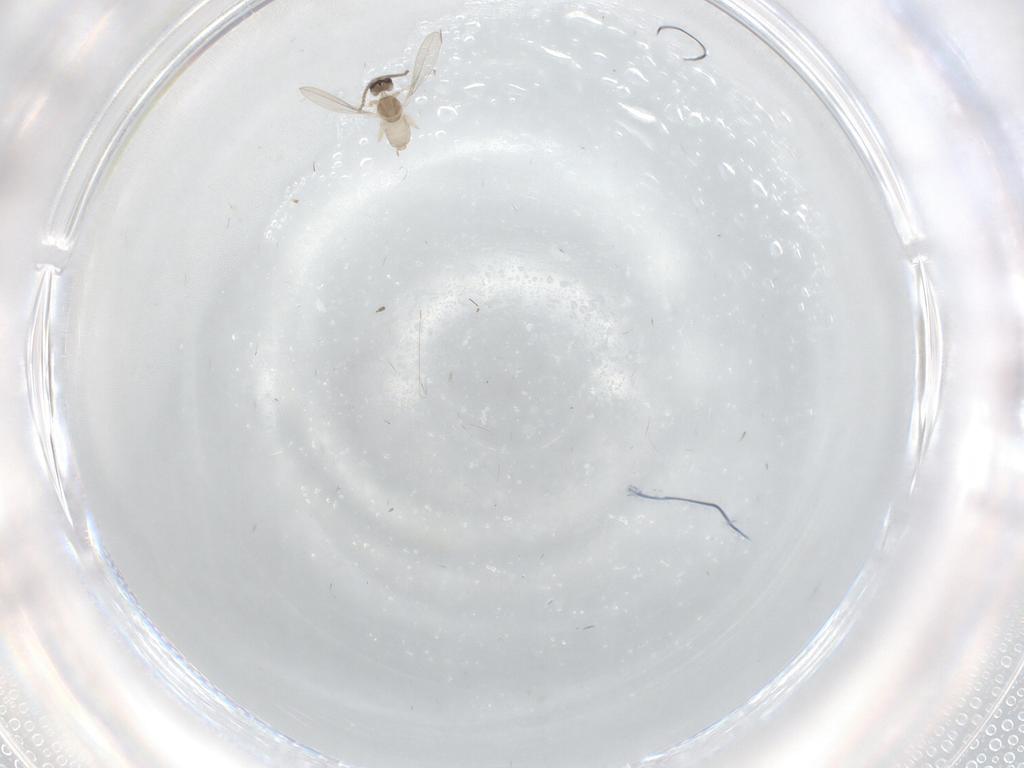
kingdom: Animalia
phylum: Arthropoda
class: Insecta
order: Diptera
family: Cecidomyiidae
